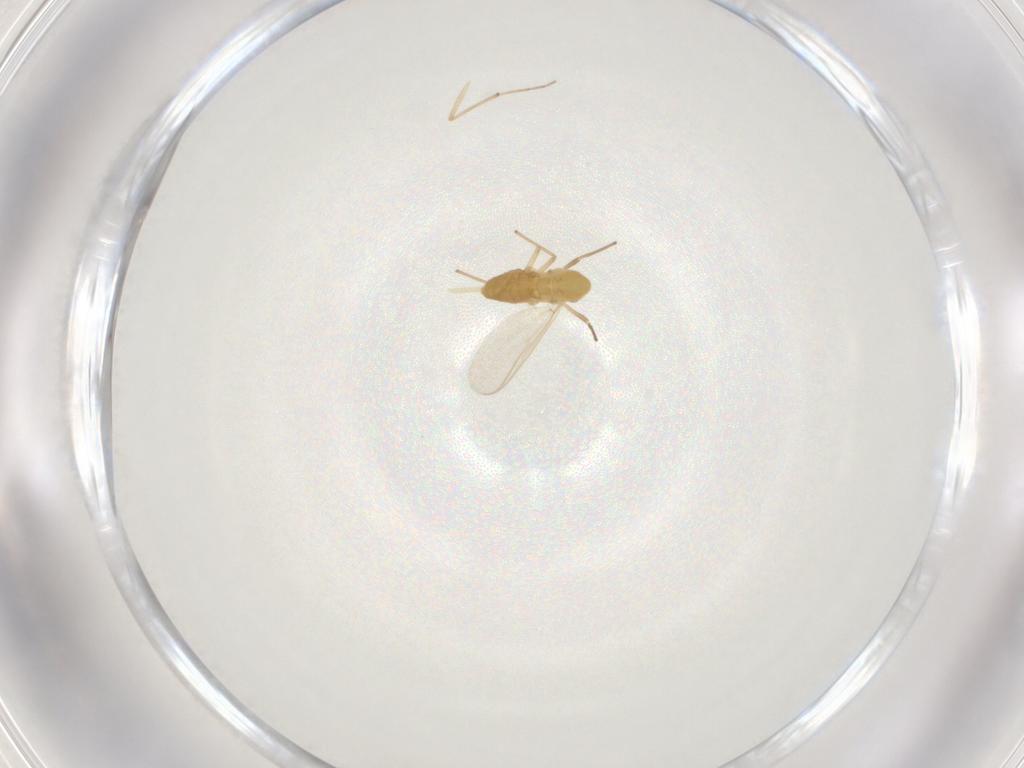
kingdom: Animalia
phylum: Arthropoda
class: Insecta
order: Diptera
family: Chironomidae
